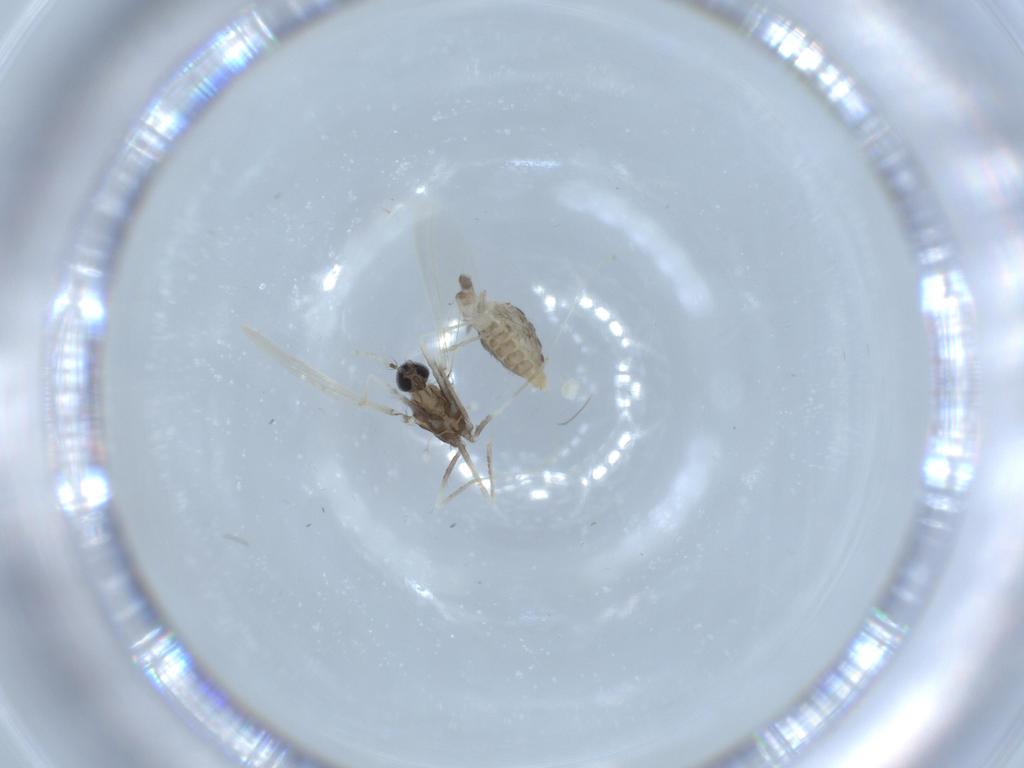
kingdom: Animalia
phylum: Arthropoda
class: Insecta
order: Diptera
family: Cecidomyiidae
